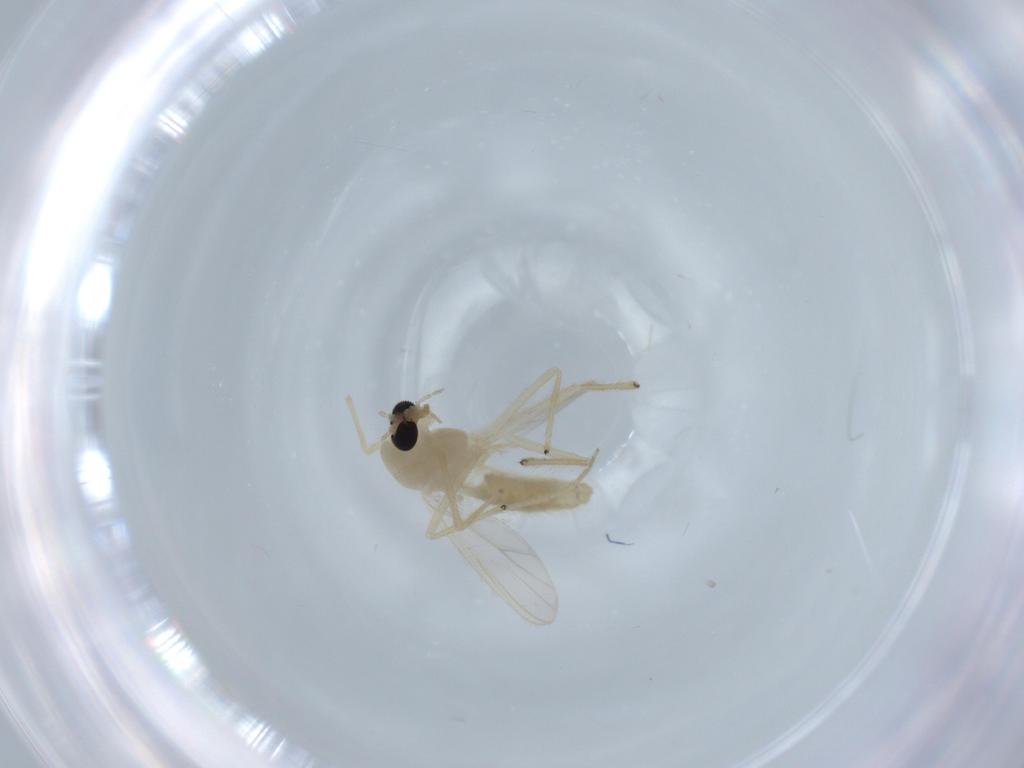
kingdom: Animalia
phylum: Arthropoda
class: Insecta
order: Diptera
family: Chironomidae
